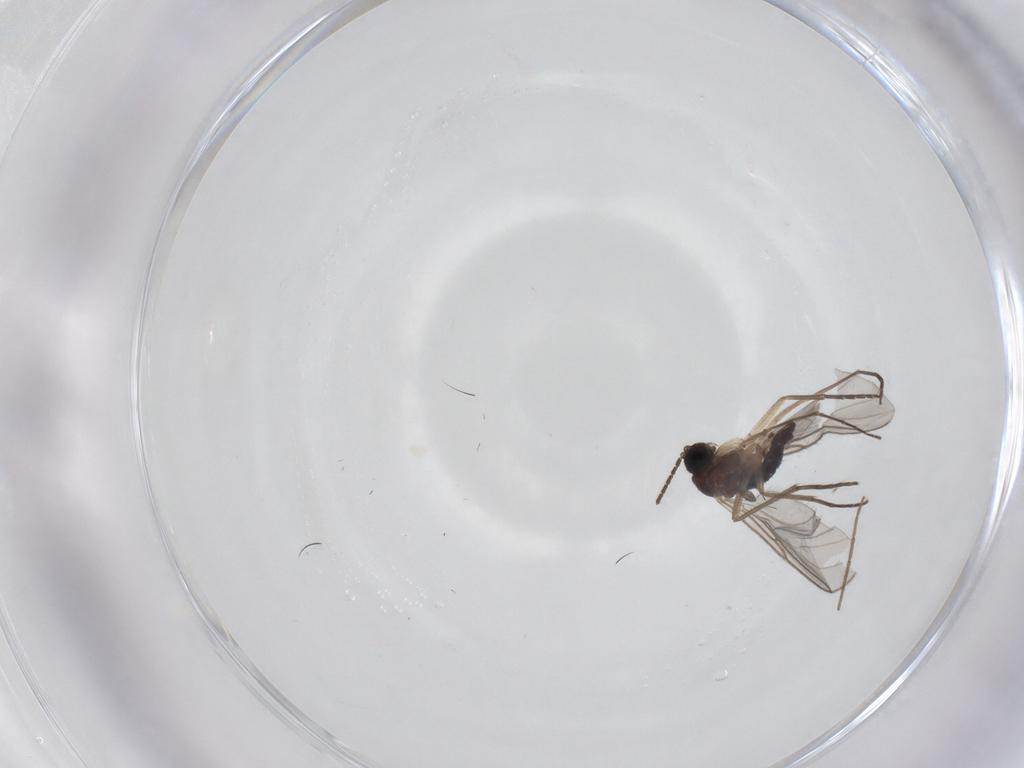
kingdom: Animalia
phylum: Arthropoda
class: Insecta
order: Diptera
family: Sciaridae
